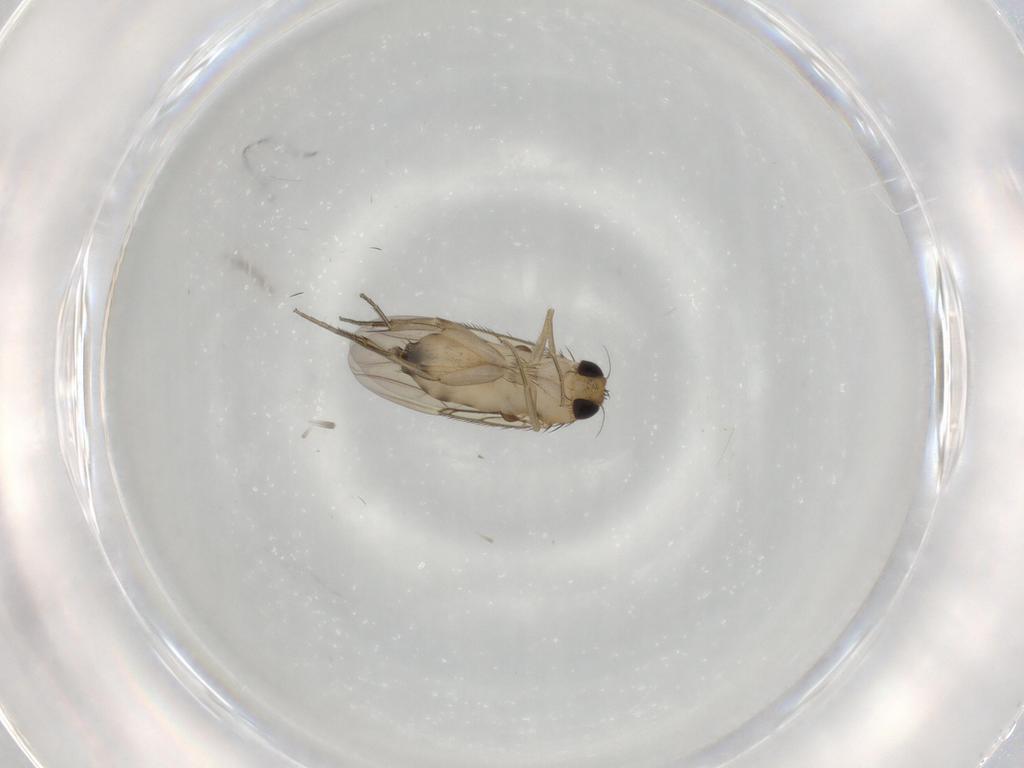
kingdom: Animalia
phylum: Arthropoda
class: Insecta
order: Diptera
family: Phoridae
